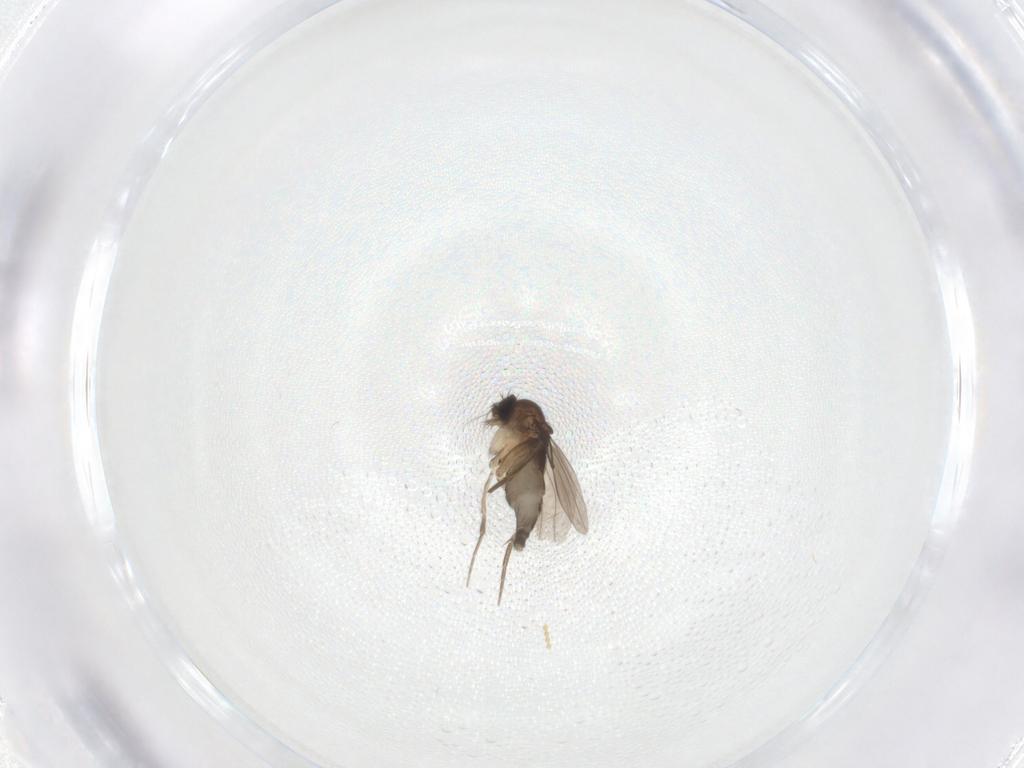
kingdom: Animalia
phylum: Arthropoda
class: Insecta
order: Diptera
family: Phoridae
